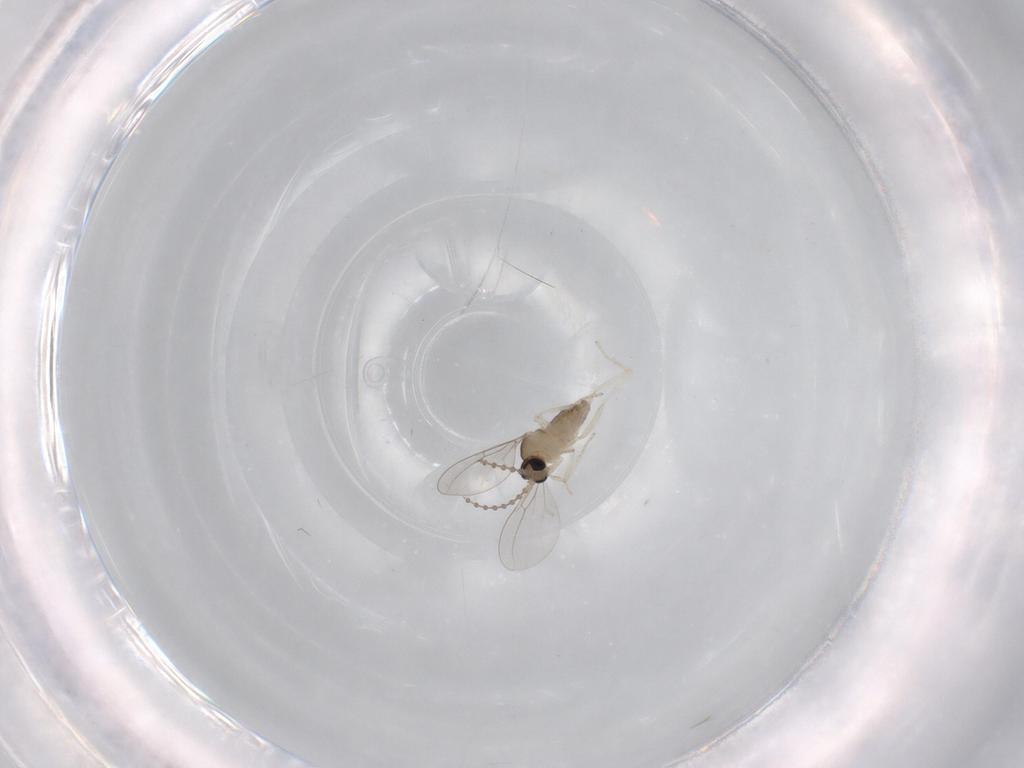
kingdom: Animalia
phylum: Arthropoda
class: Insecta
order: Diptera
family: Cecidomyiidae
